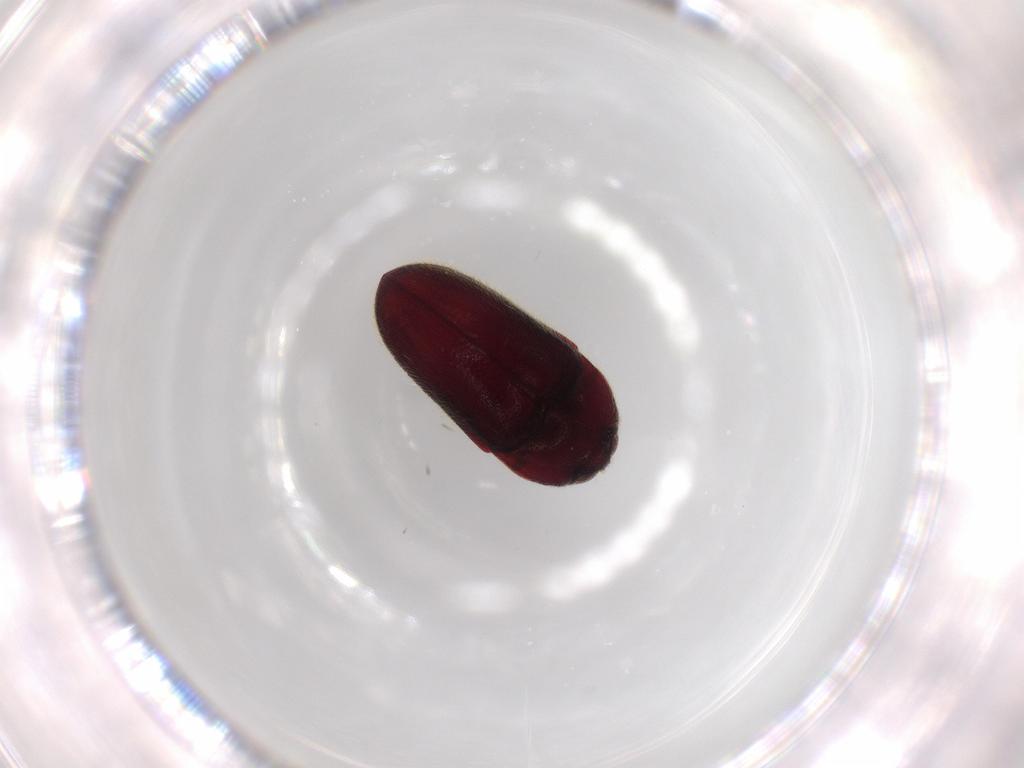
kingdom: Animalia
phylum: Arthropoda
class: Insecta
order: Coleoptera
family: Throscidae
